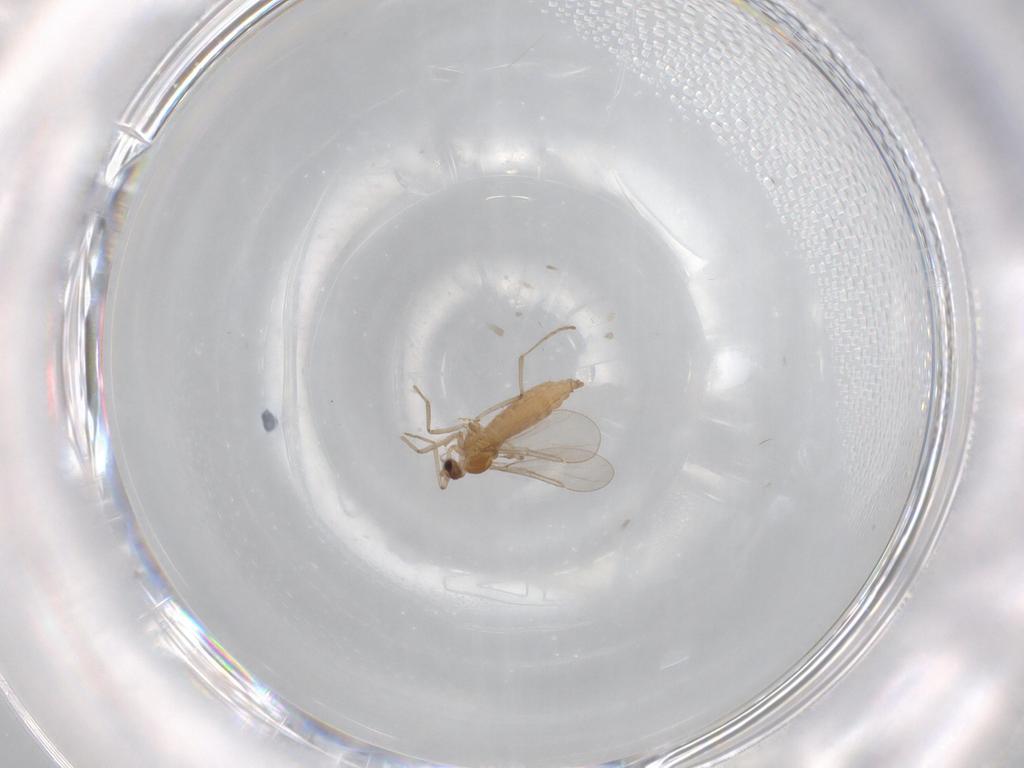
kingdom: Animalia
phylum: Arthropoda
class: Insecta
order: Diptera
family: Cecidomyiidae
